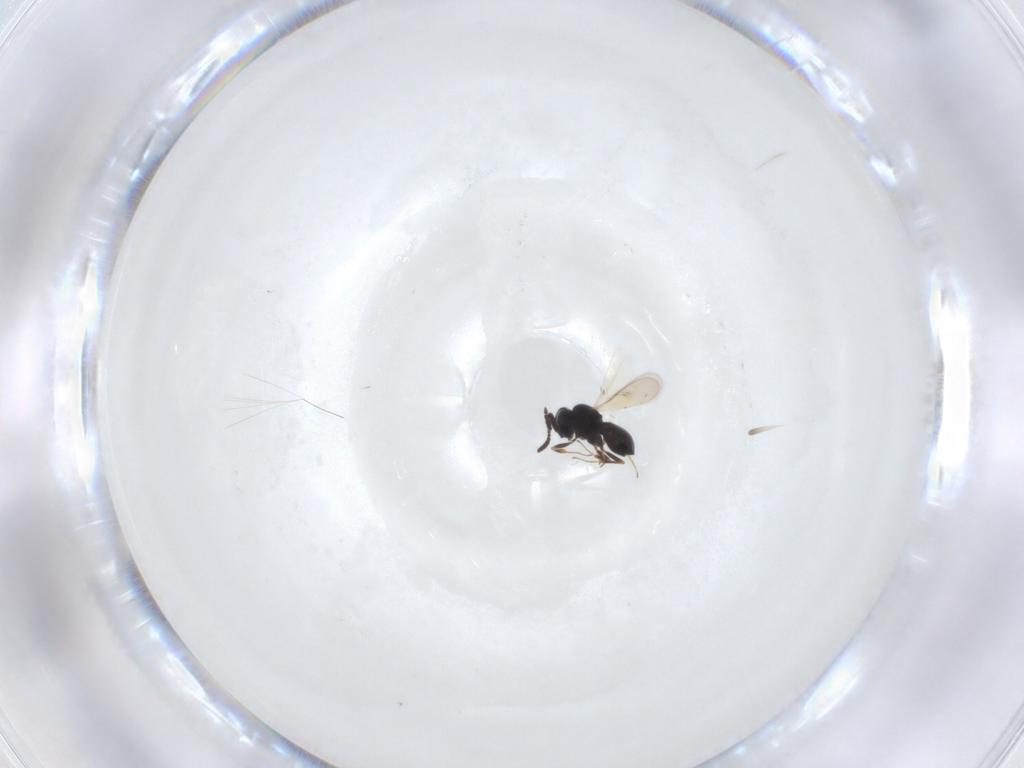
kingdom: Animalia
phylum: Arthropoda
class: Insecta
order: Hymenoptera
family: Scelionidae
